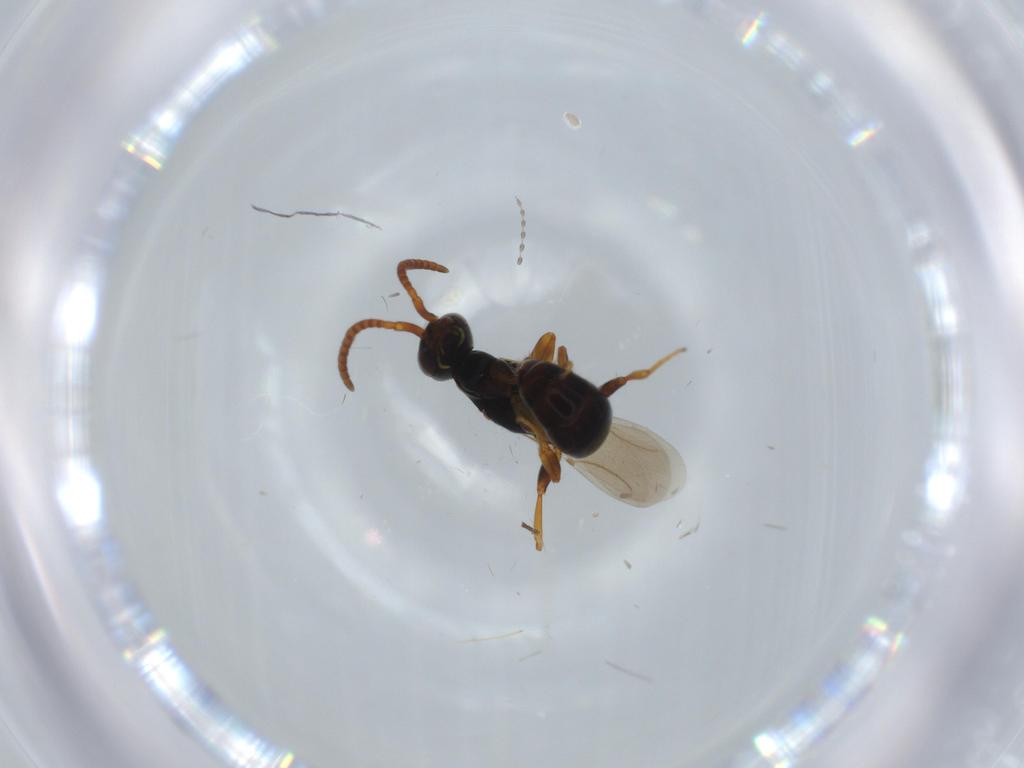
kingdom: Animalia
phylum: Arthropoda
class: Insecta
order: Hymenoptera
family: Bethylidae
